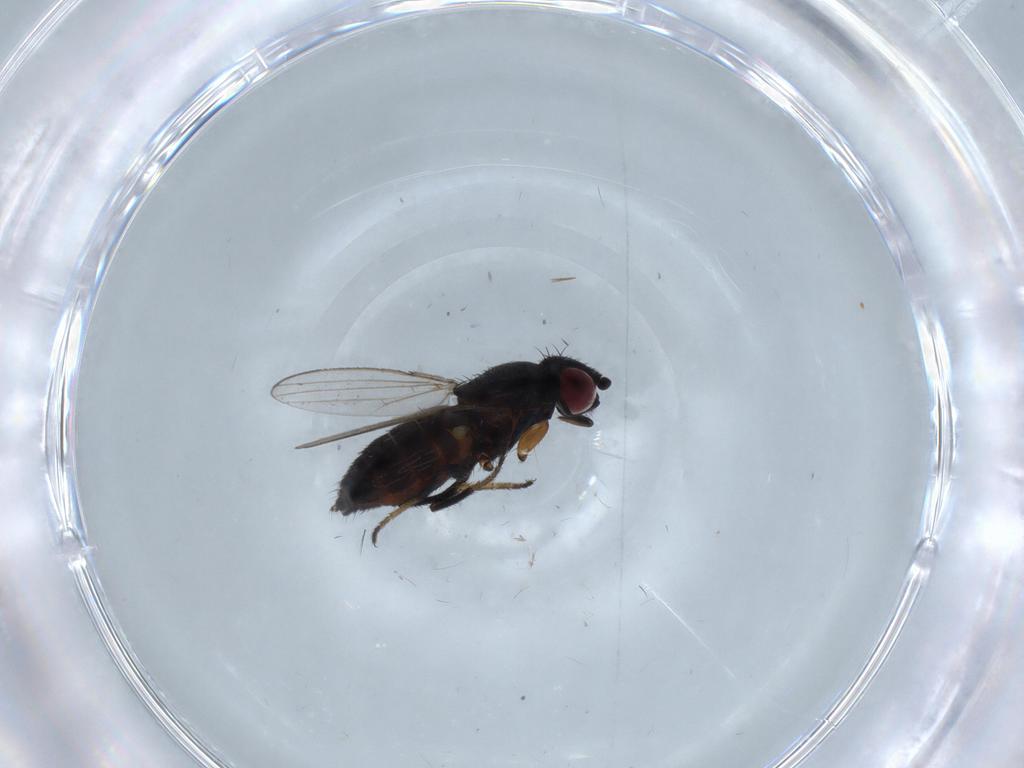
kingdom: Animalia
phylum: Arthropoda
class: Insecta
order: Diptera
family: Milichiidae
